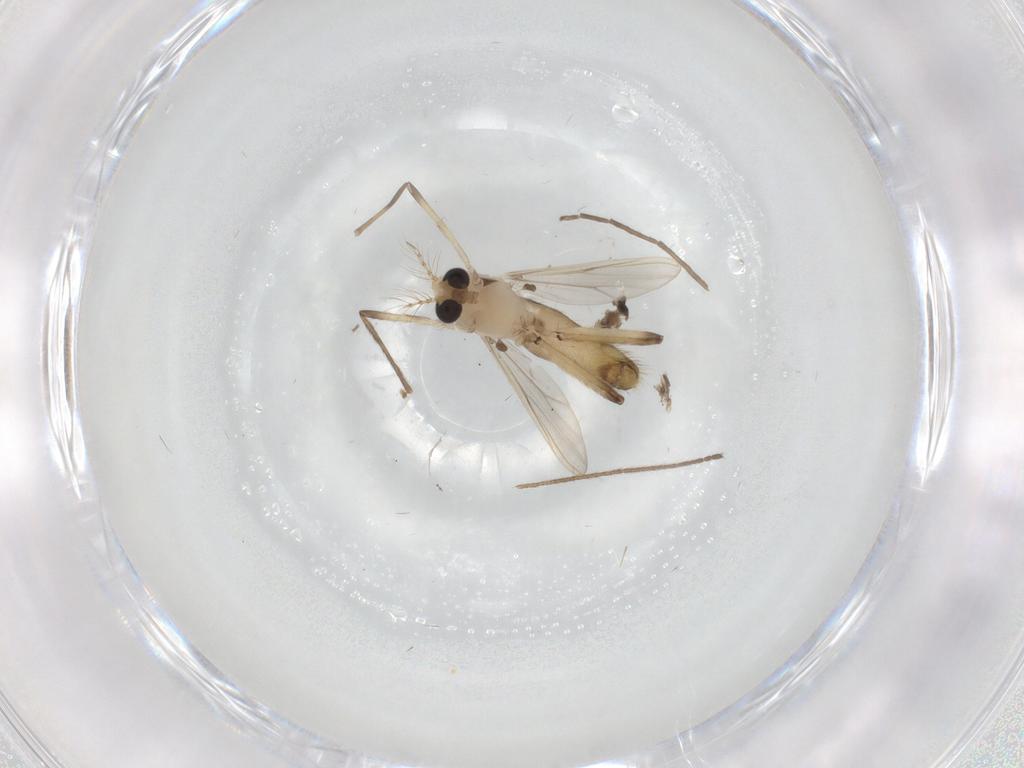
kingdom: Animalia
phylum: Arthropoda
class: Insecta
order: Diptera
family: Chironomidae
